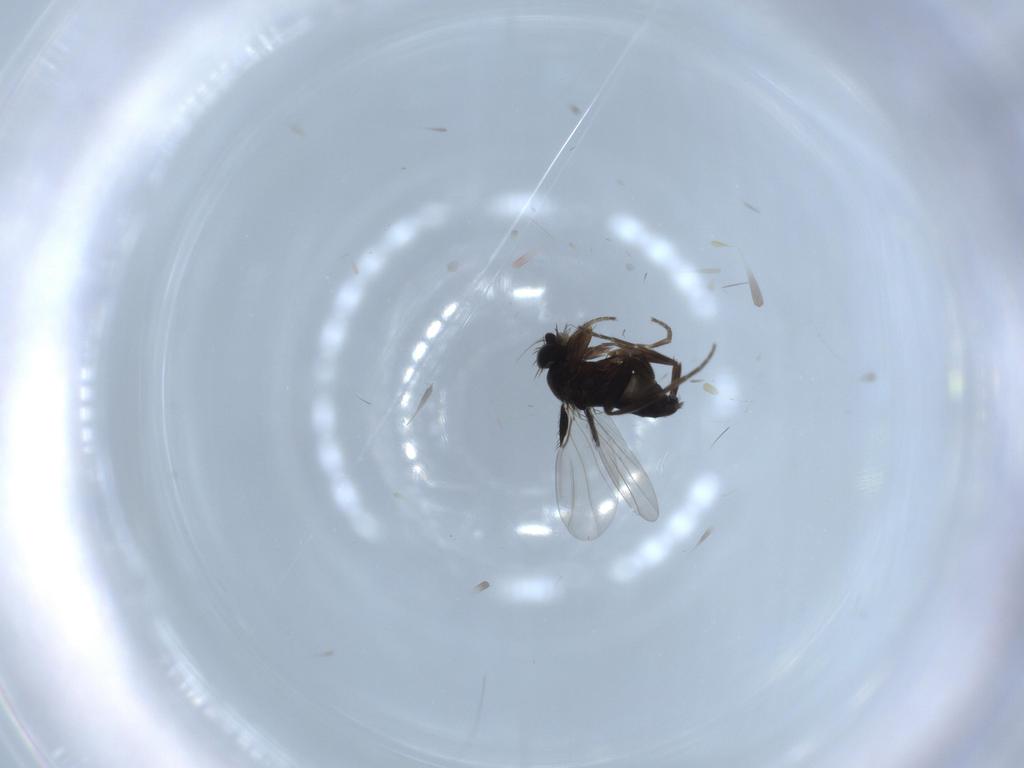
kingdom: Animalia
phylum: Arthropoda
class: Insecta
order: Diptera
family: Phoridae
